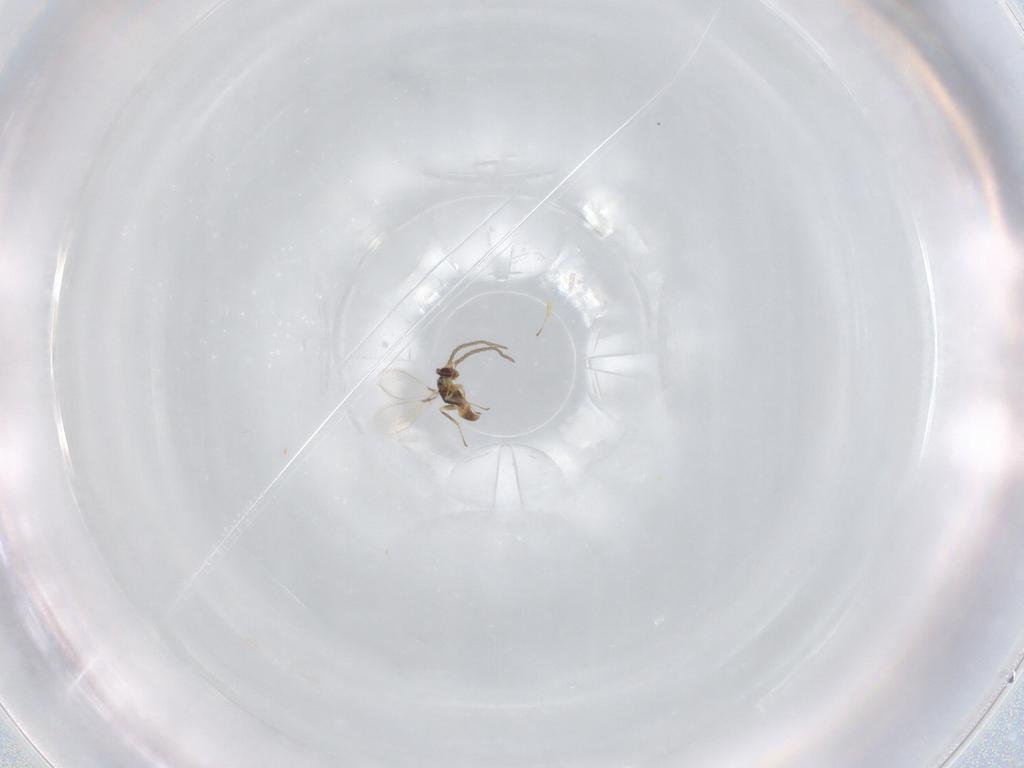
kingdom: Animalia
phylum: Arthropoda
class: Insecta
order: Hymenoptera
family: Mymaridae
